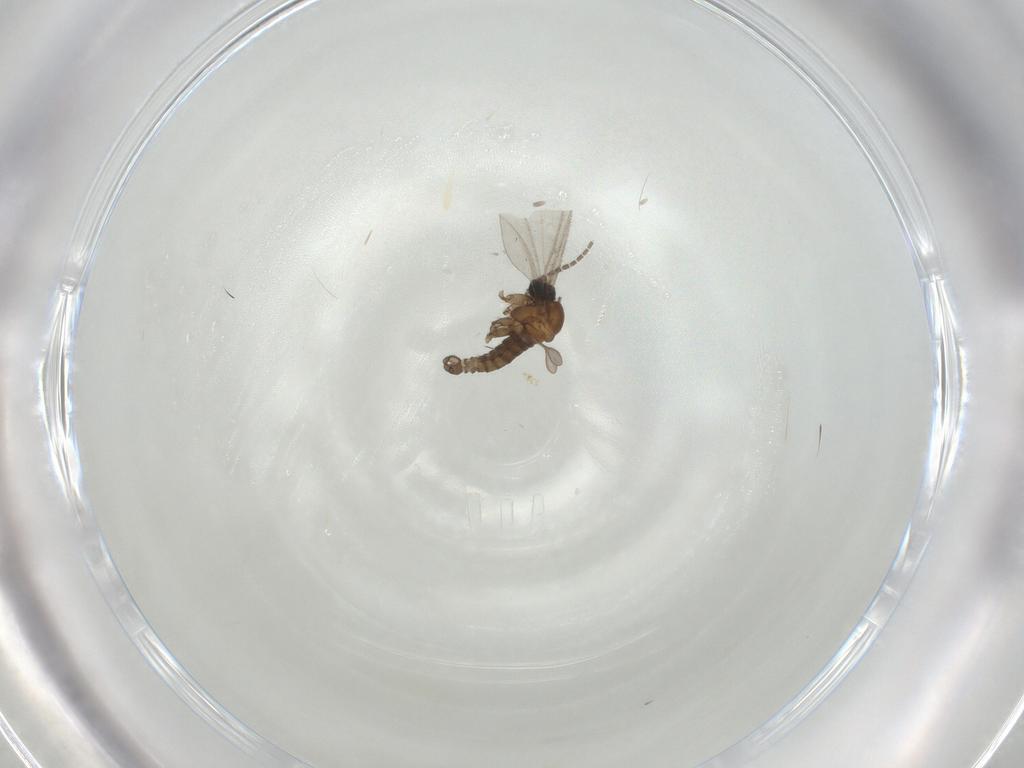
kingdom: Animalia
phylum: Arthropoda
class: Insecta
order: Diptera
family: Sciaridae
